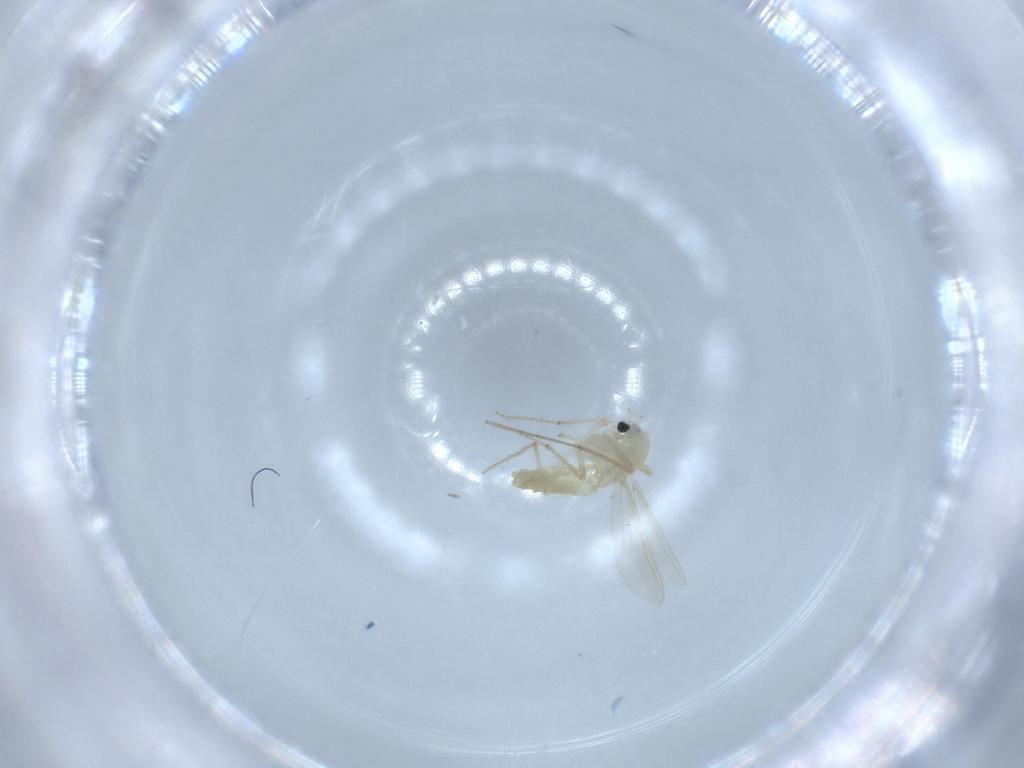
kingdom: Animalia
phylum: Arthropoda
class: Insecta
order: Diptera
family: Chironomidae
